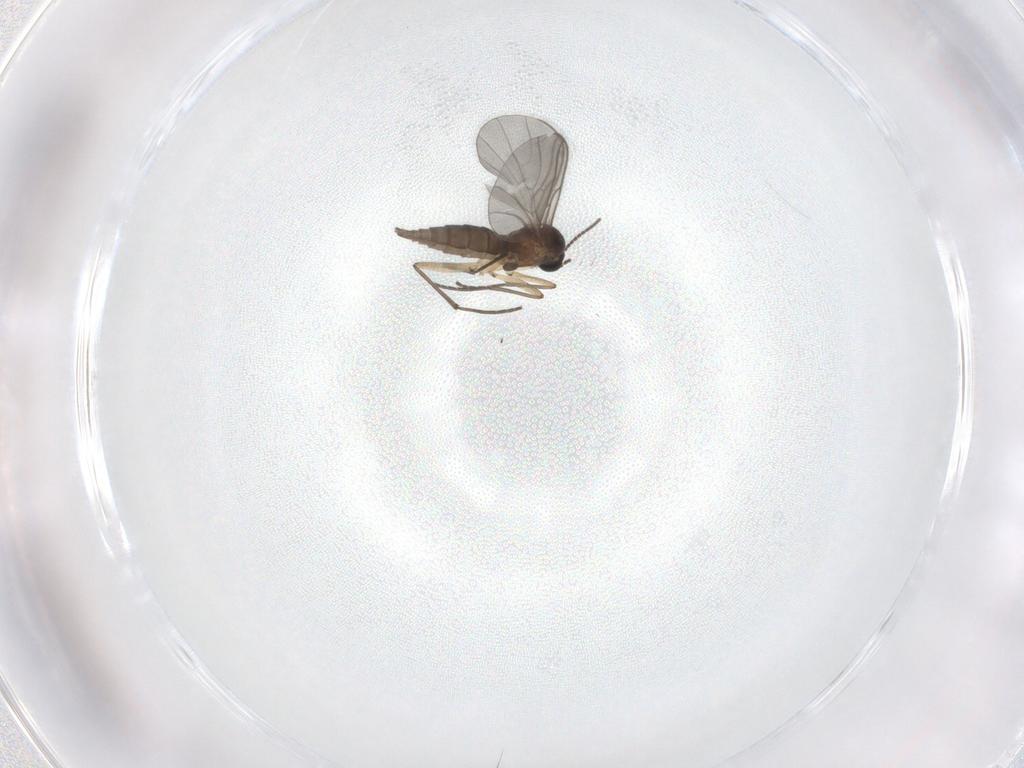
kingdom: Animalia
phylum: Arthropoda
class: Insecta
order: Diptera
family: Sciaridae
